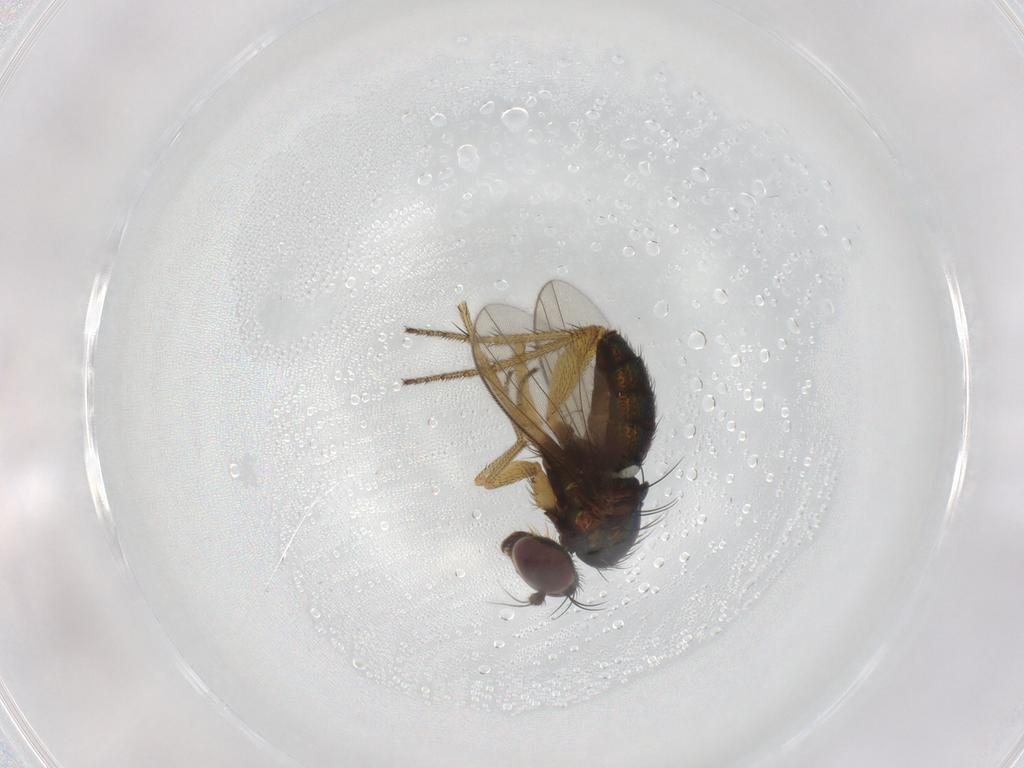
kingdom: Animalia
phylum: Arthropoda
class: Insecta
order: Diptera
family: Dolichopodidae
